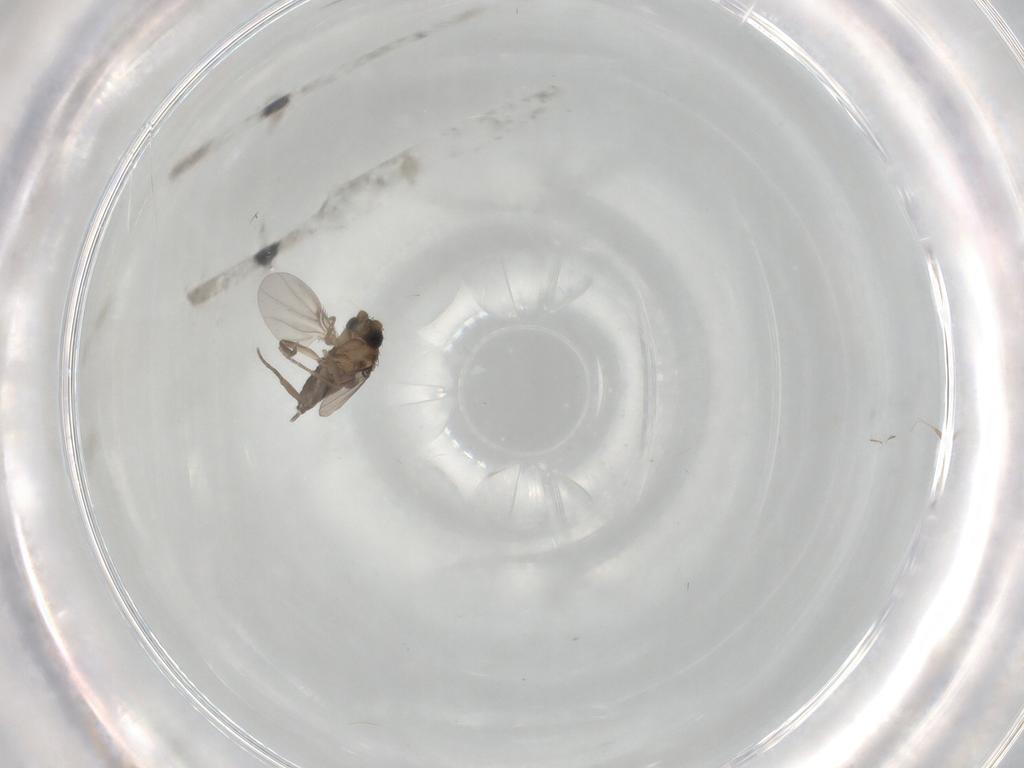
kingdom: Animalia
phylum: Arthropoda
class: Insecta
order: Diptera
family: Phoridae
